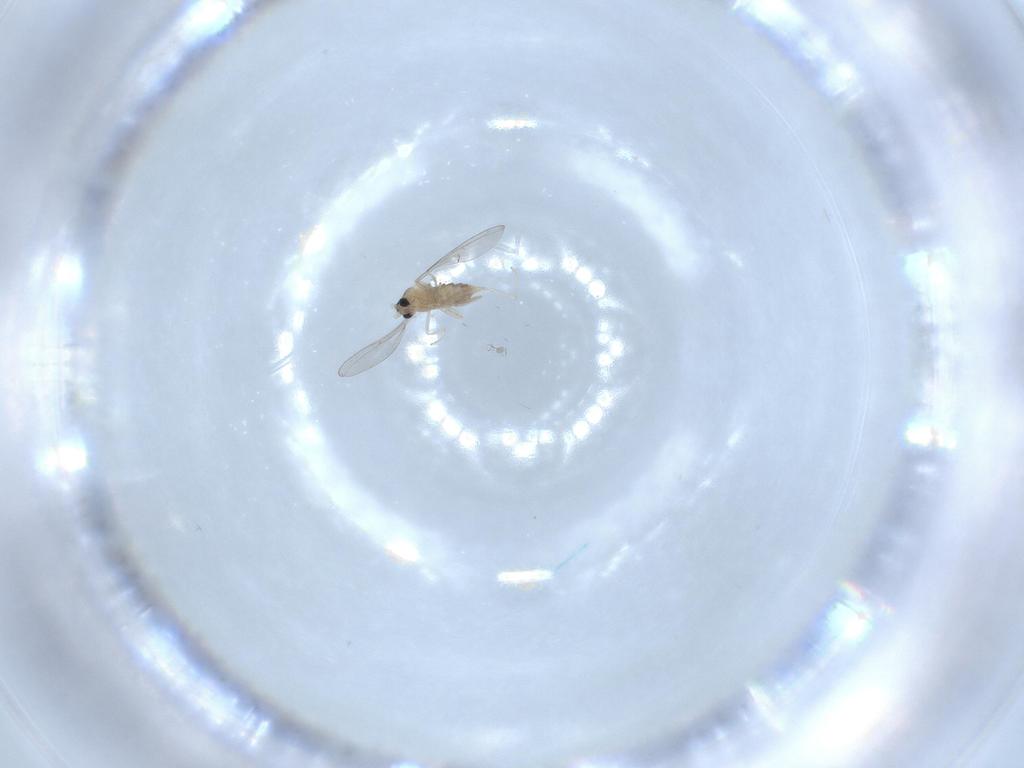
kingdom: Animalia
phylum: Arthropoda
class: Insecta
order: Diptera
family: Cecidomyiidae
